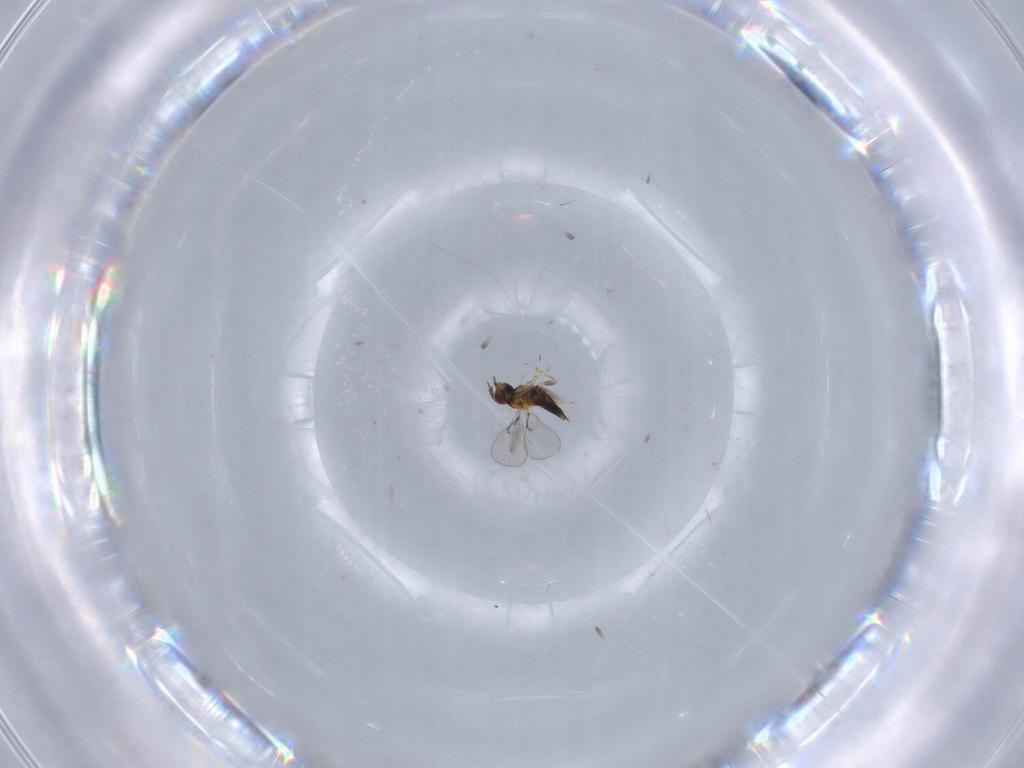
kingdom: Animalia
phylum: Arthropoda
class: Insecta
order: Hymenoptera
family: Trichogrammatidae
